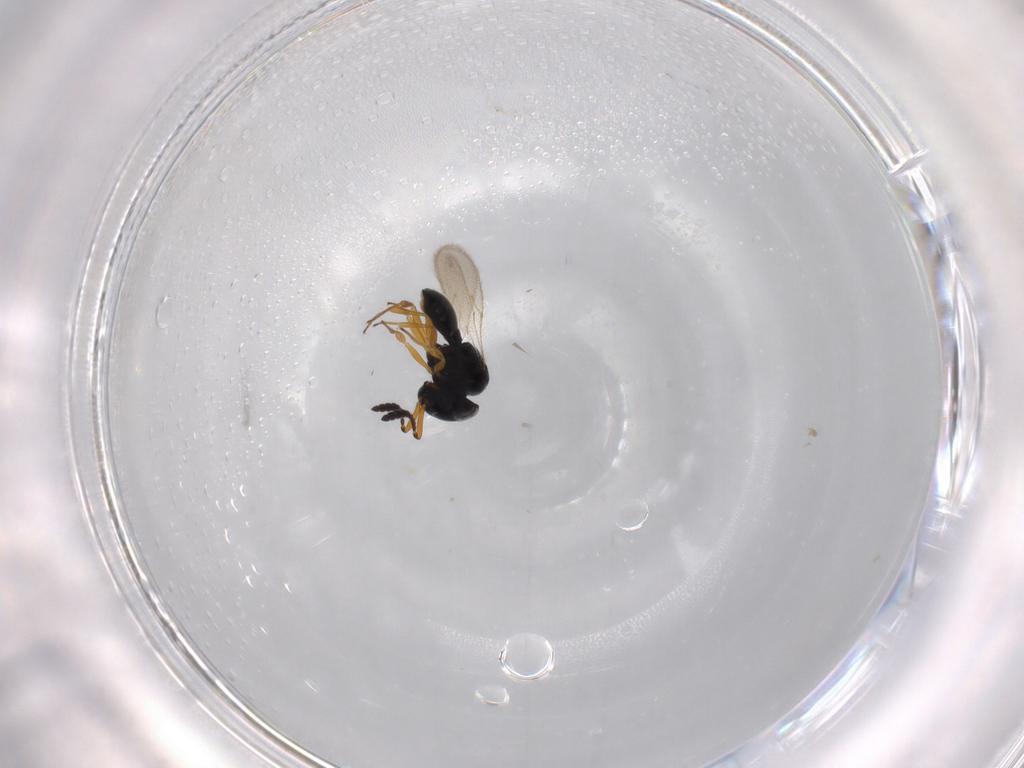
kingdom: Animalia
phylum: Arthropoda
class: Insecta
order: Hymenoptera
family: Scelionidae
